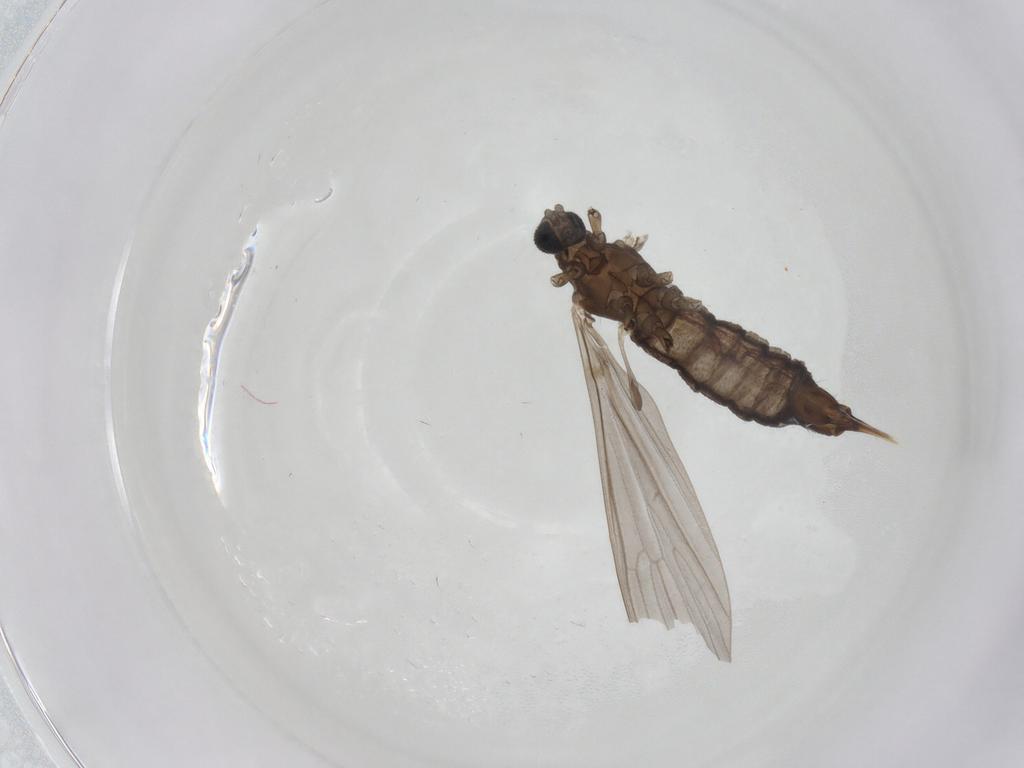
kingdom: Animalia
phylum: Arthropoda
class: Insecta
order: Diptera
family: Limoniidae
